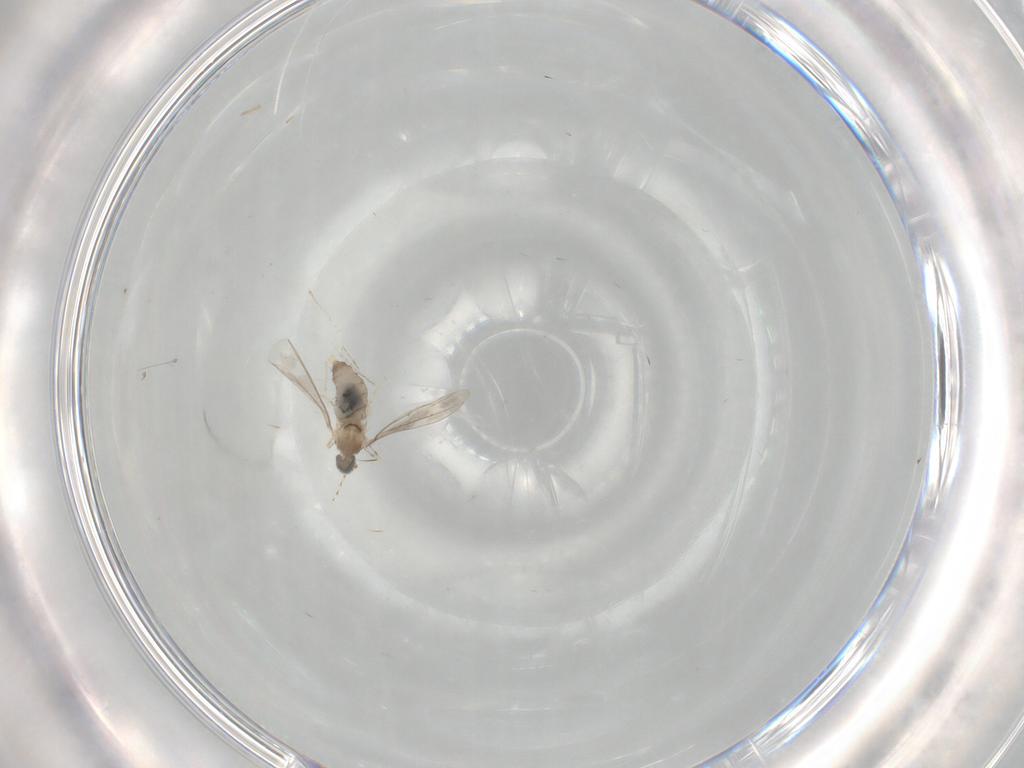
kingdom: Animalia
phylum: Arthropoda
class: Insecta
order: Diptera
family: Cecidomyiidae
